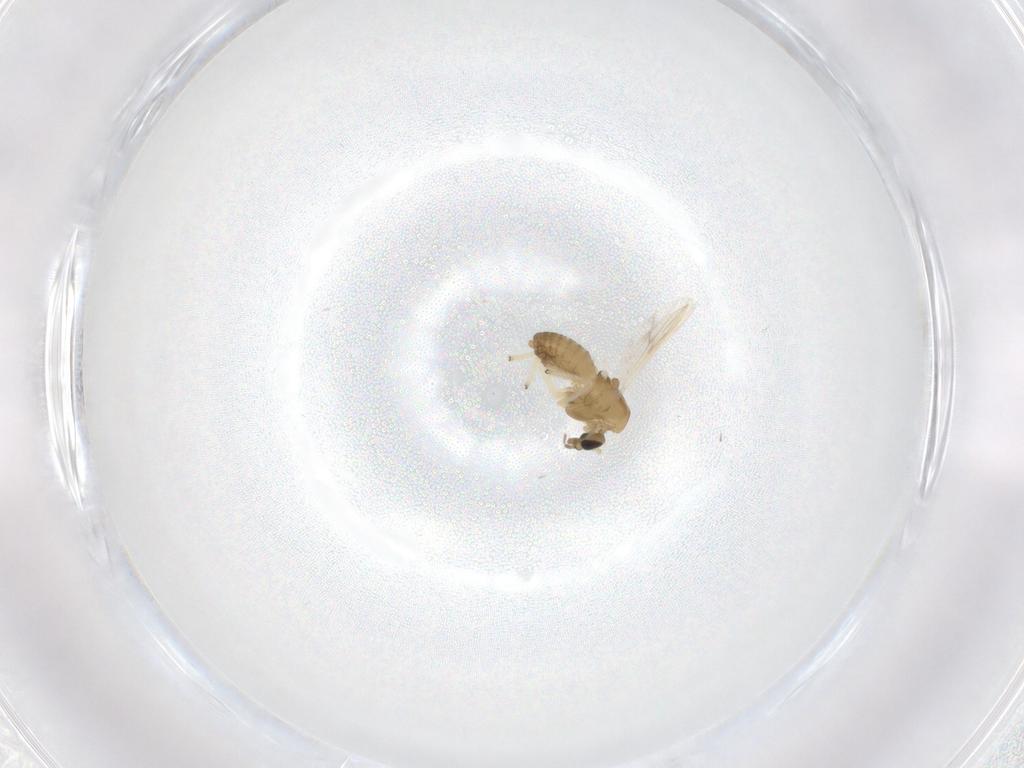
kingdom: Animalia
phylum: Arthropoda
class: Insecta
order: Diptera
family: Chironomidae
